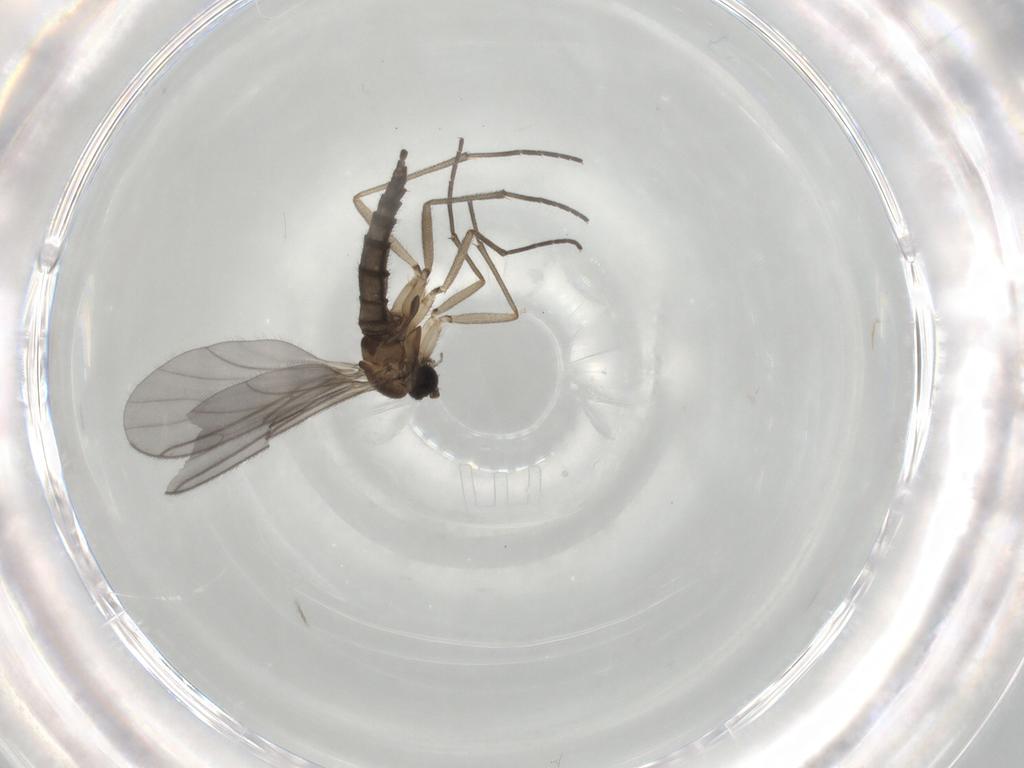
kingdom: Animalia
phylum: Arthropoda
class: Insecta
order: Diptera
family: Sciaridae
